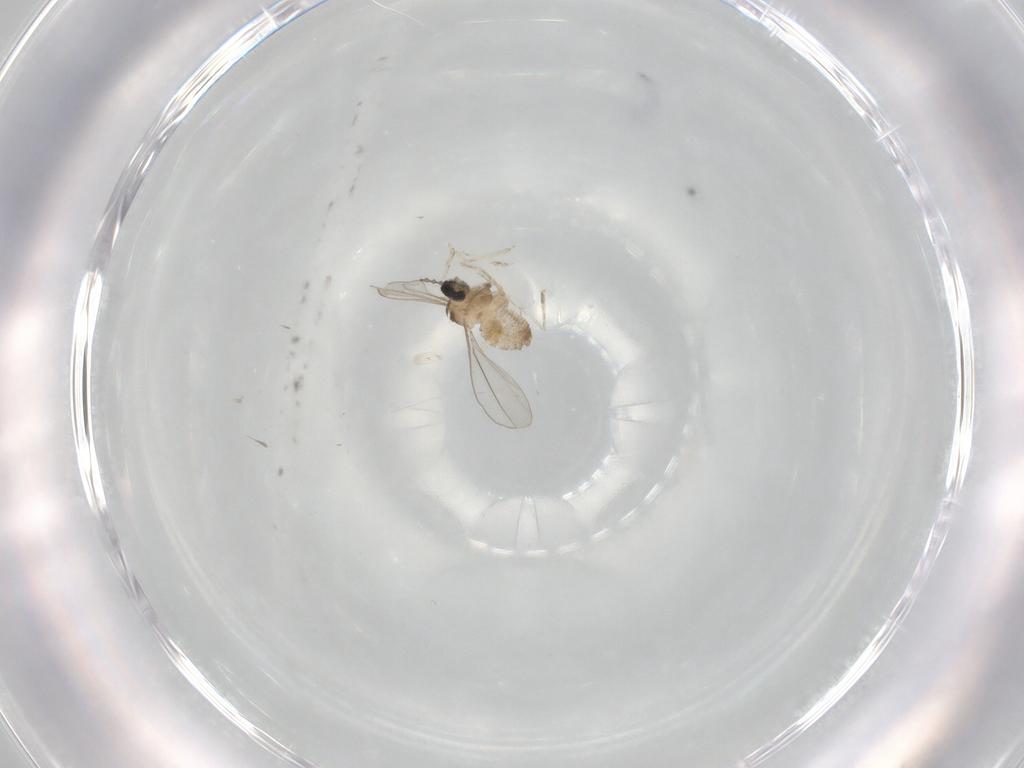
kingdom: Animalia
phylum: Arthropoda
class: Insecta
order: Diptera
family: Cecidomyiidae
